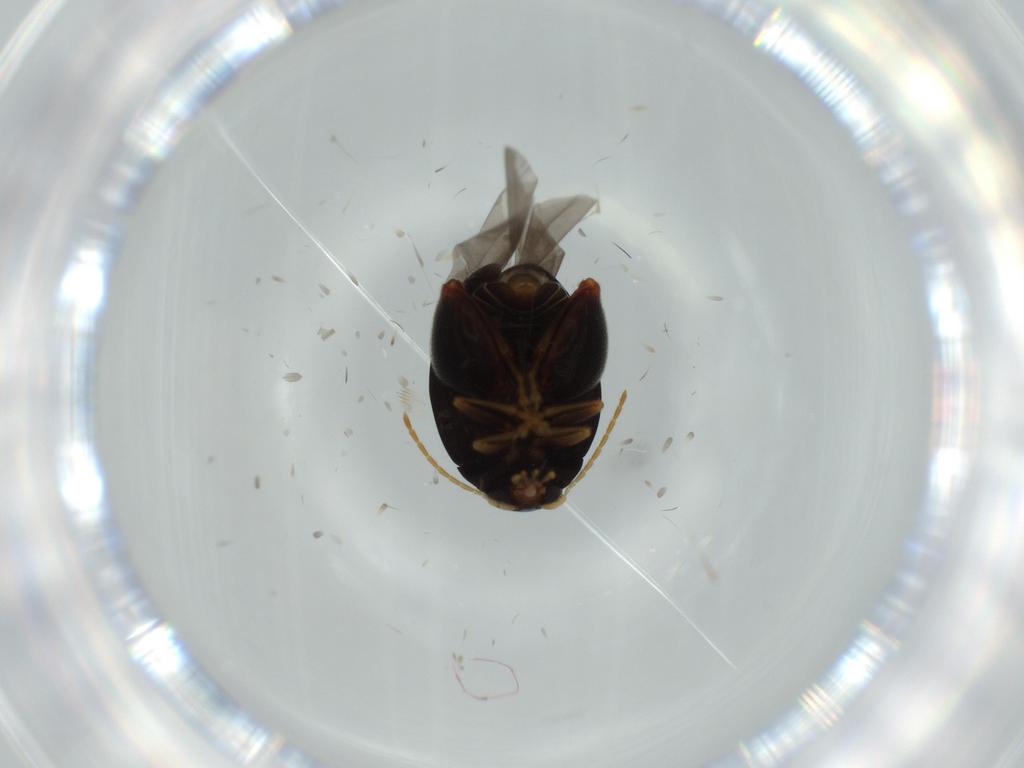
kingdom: Animalia
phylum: Arthropoda
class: Insecta
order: Coleoptera
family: Chrysomelidae
